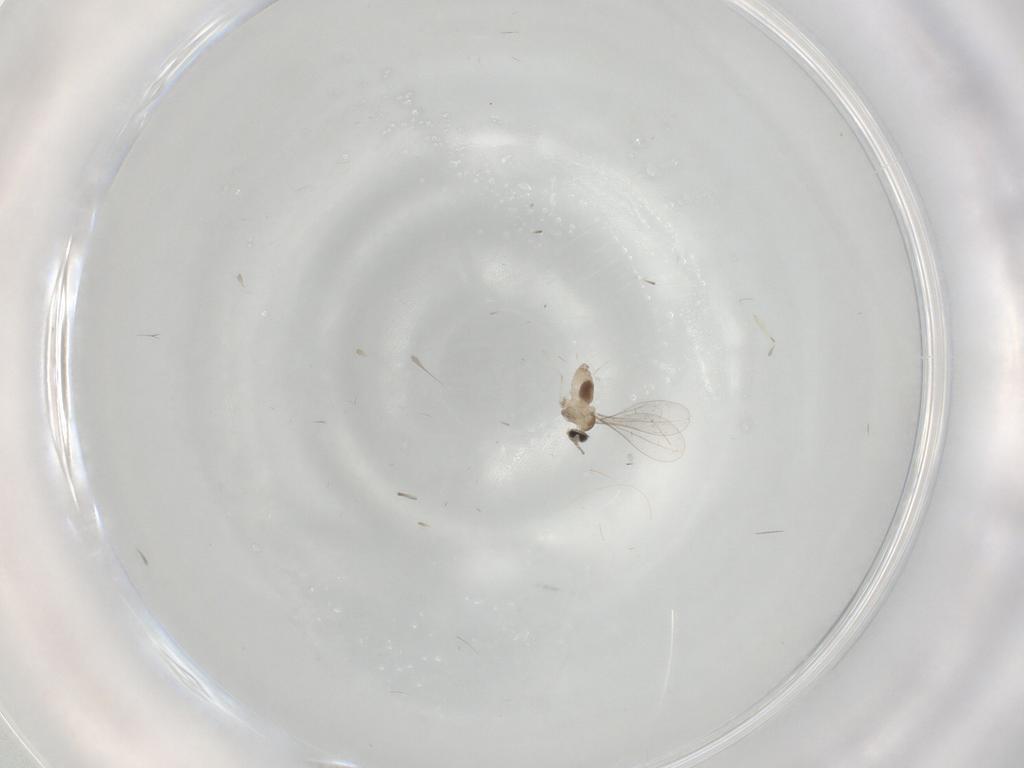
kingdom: Animalia
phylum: Arthropoda
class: Insecta
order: Diptera
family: Cecidomyiidae
